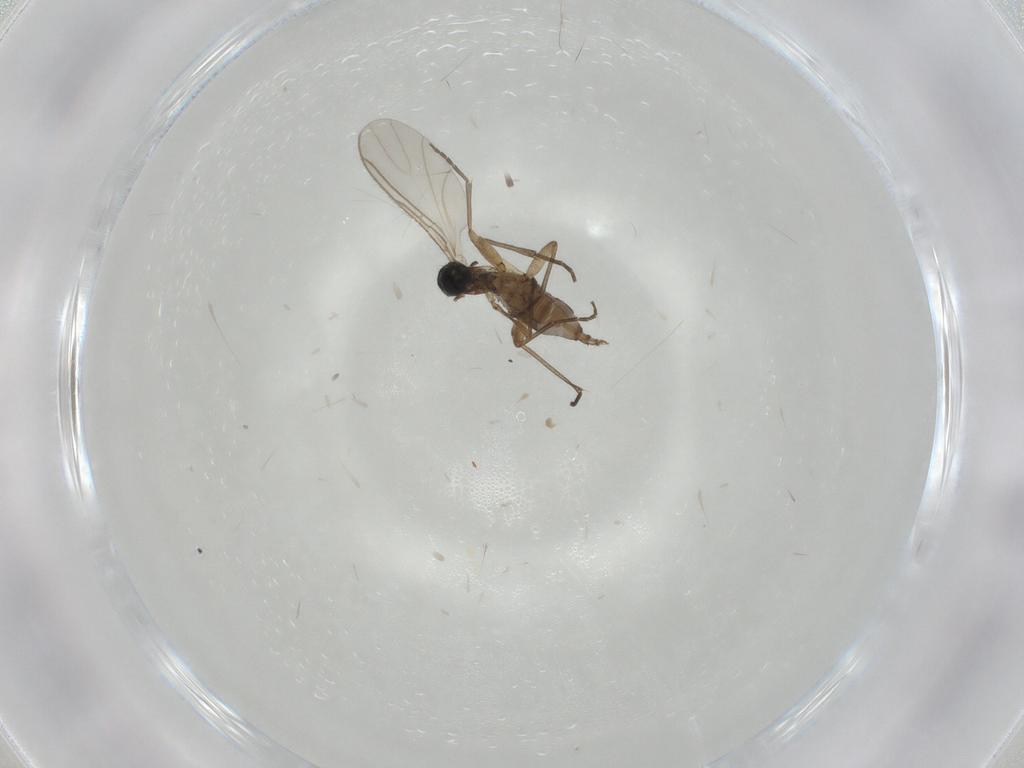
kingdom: Animalia
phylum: Arthropoda
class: Insecta
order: Diptera
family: Sciaridae
